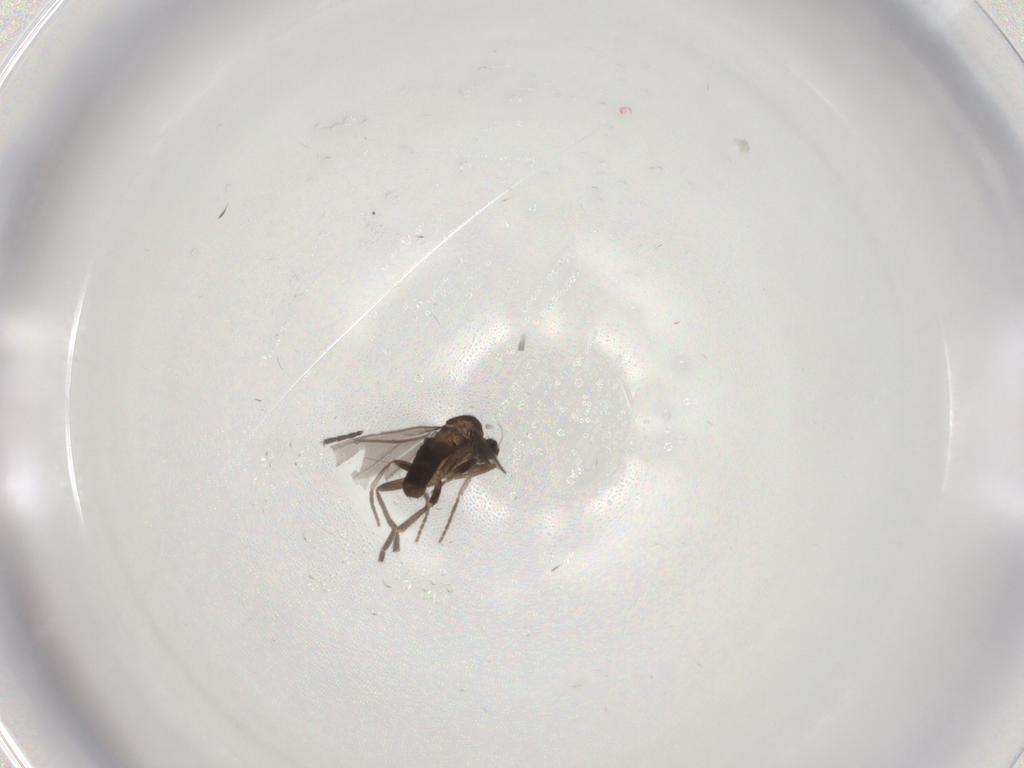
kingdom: Animalia
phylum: Arthropoda
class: Insecta
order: Diptera
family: Phoridae
